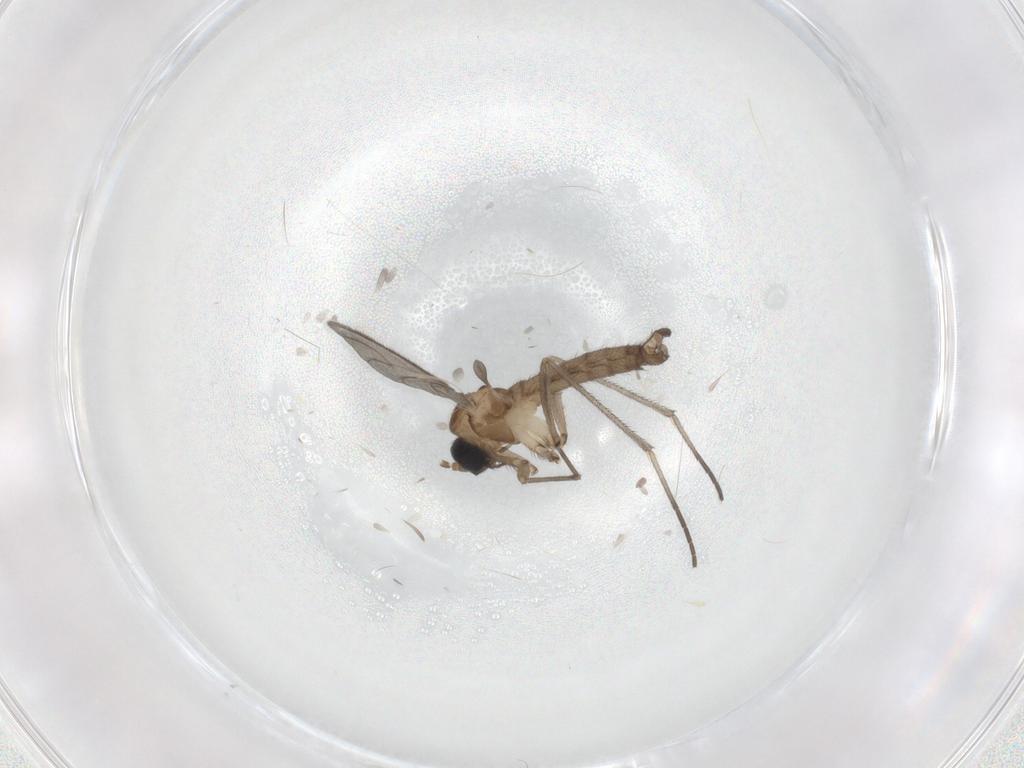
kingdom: Animalia
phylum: Arthropoda
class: Insecta
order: Diptera
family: Sciaridae
